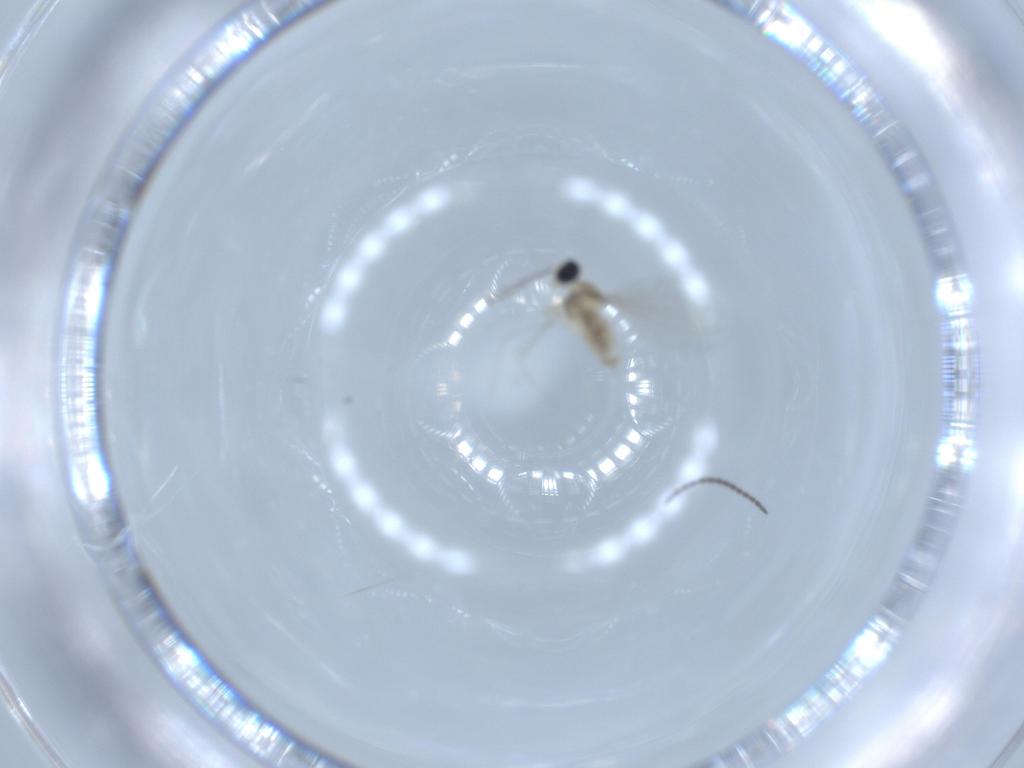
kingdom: Animalia
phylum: Arthropoda
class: Insecta
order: Diptera
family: Cecidomyiidae
